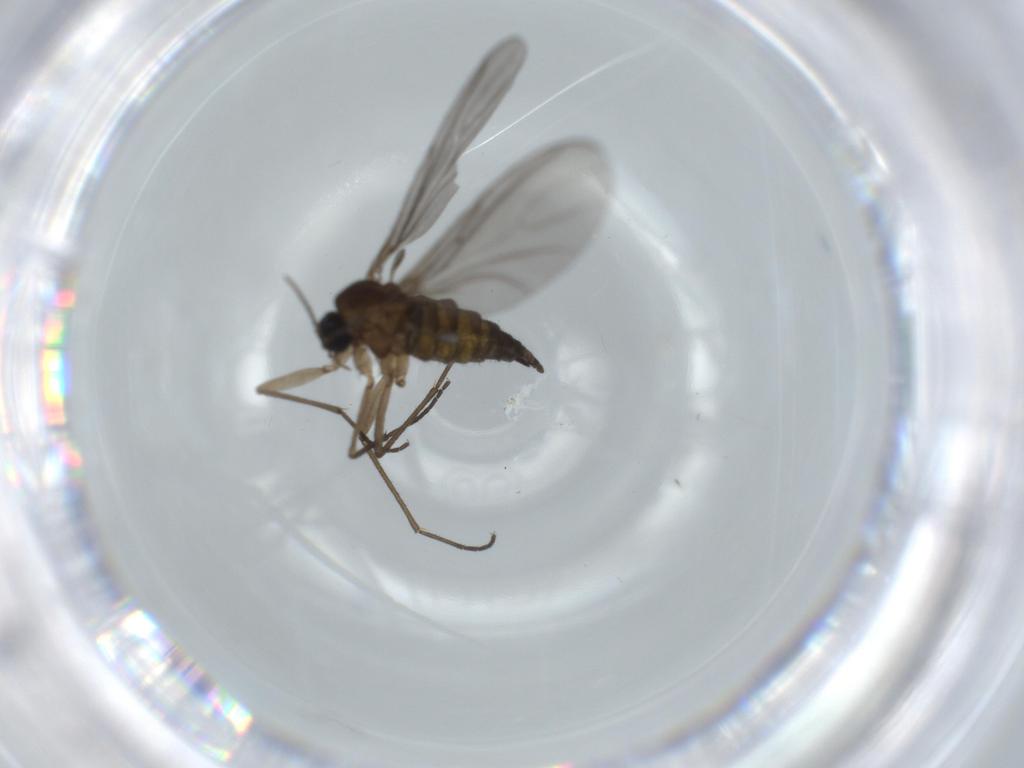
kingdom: Animalia
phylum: Arthropoda
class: Insecta
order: Diptera
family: Sciaridae
